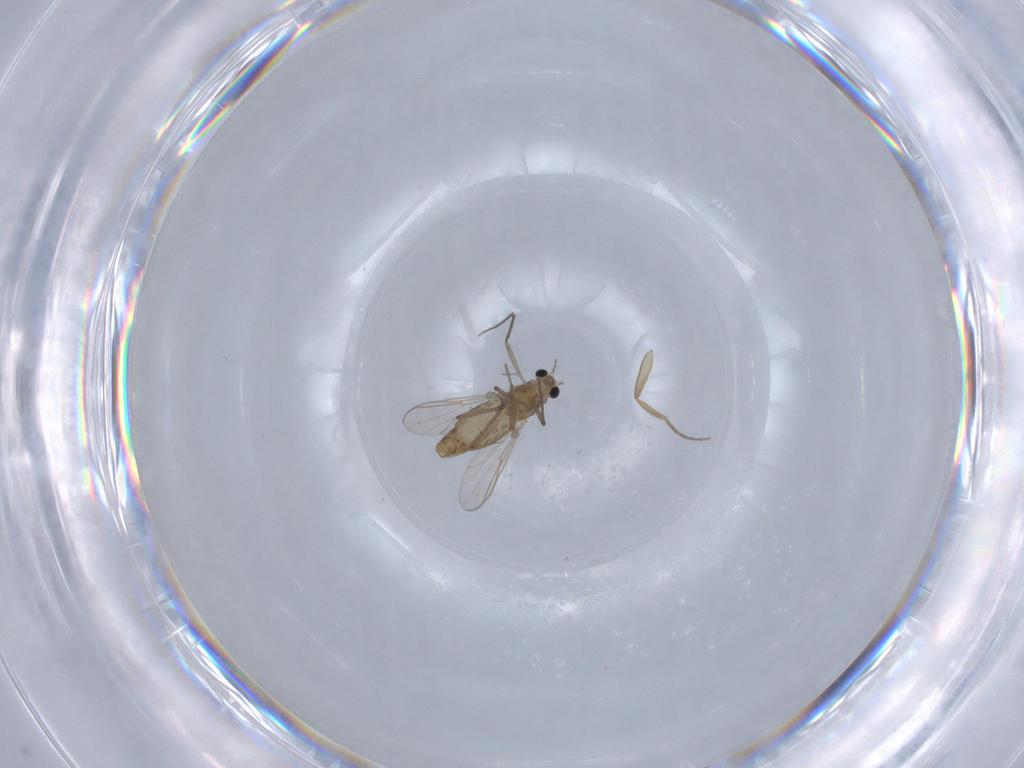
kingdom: Animalia
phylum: Arthropoda
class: Insecta
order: Diptera
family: Chironomidae
